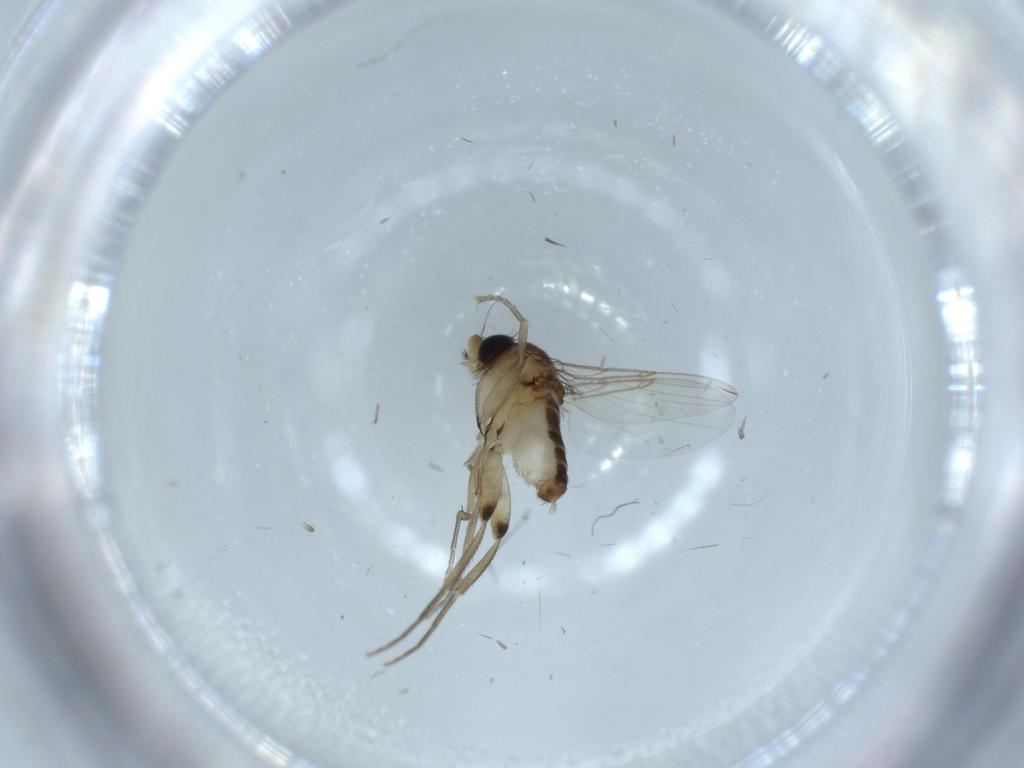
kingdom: Animalia
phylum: Arthropoda
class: Insecta
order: Diptera
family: Phoridae
